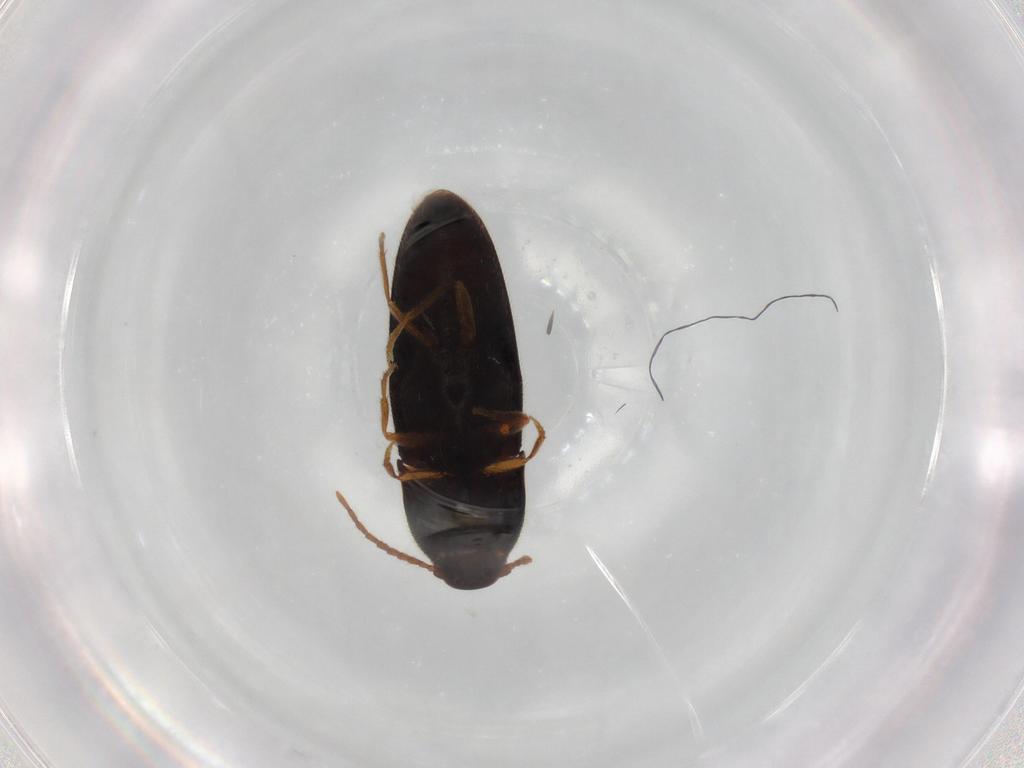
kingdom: Animalia
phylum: Arthropoda
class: Insecta
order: Coleoptera
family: Elateridae
